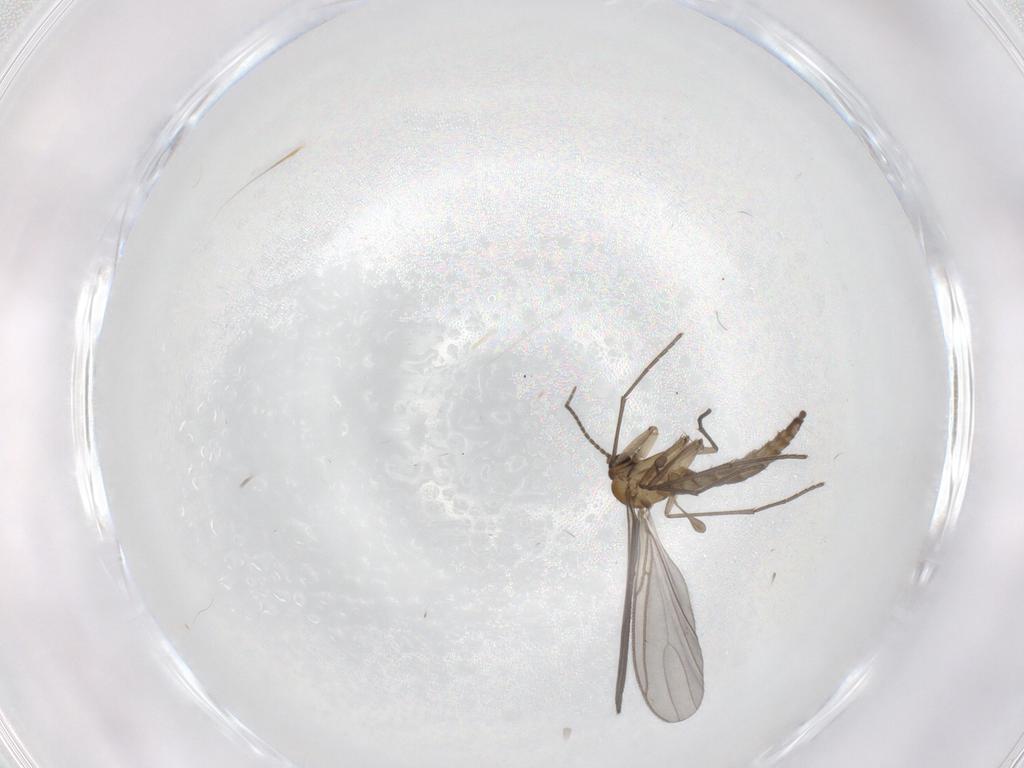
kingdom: Animalia
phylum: Arthropoda
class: Insecta
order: Diptera
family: Sciaridae
